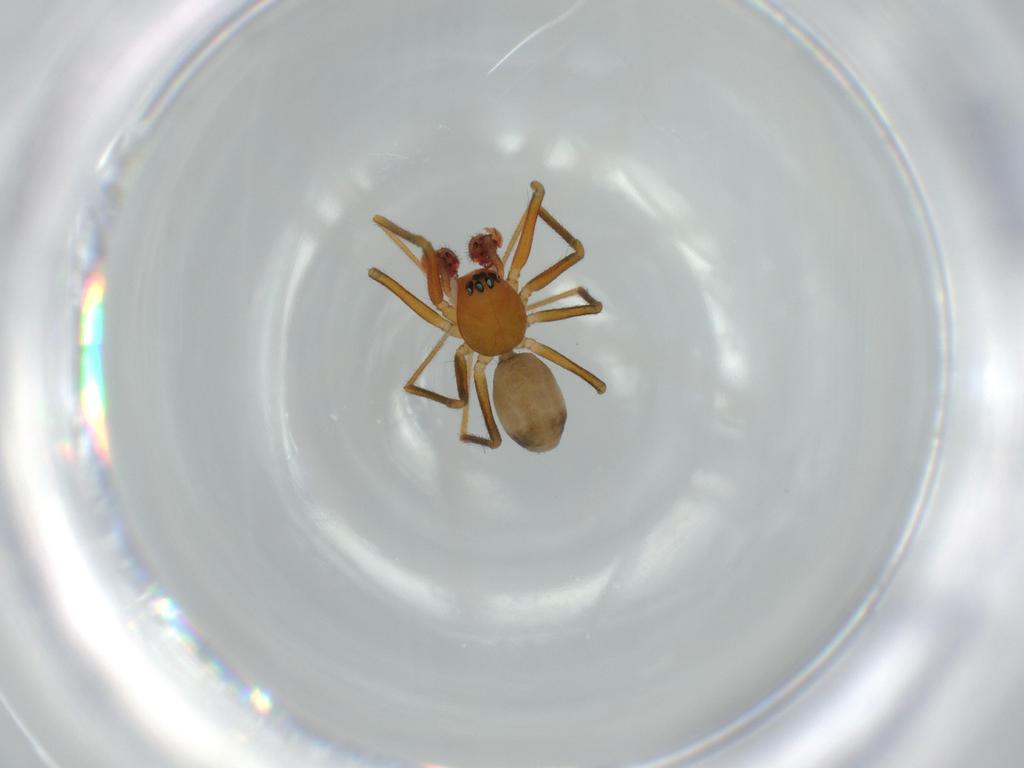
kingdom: Animalia
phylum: Arthropoda
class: Arachnida
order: Araneae
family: Linyphiidae
